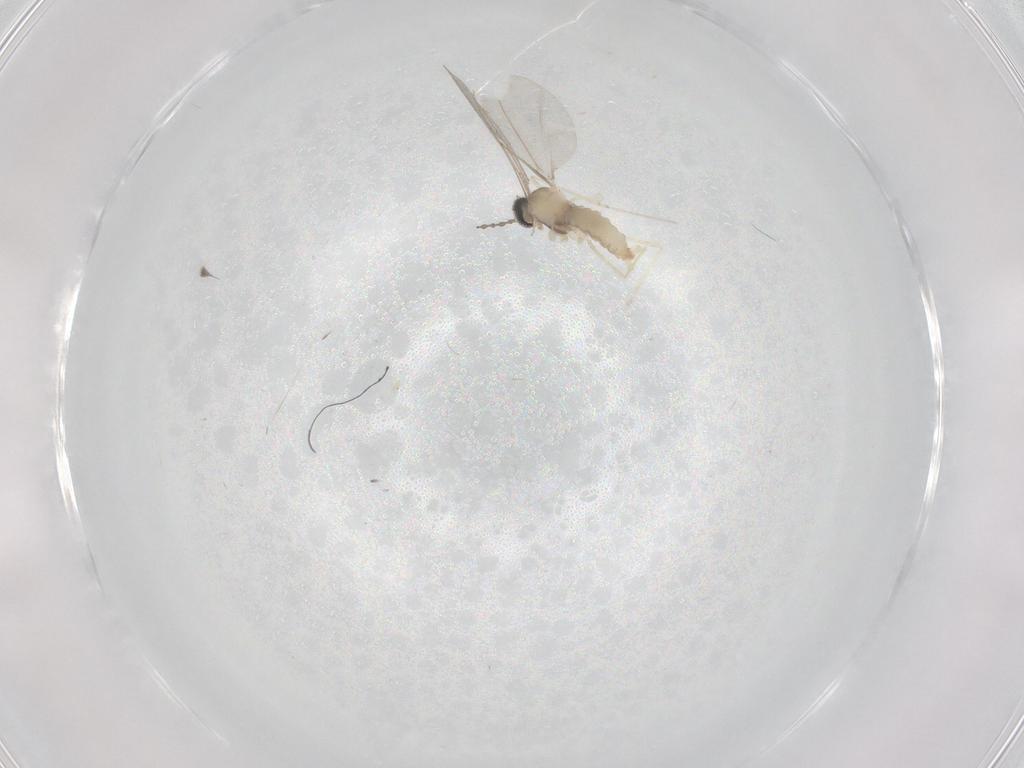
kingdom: Animalia
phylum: Arthropoda
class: Insecta
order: Diptera
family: Cecidomyiidae
